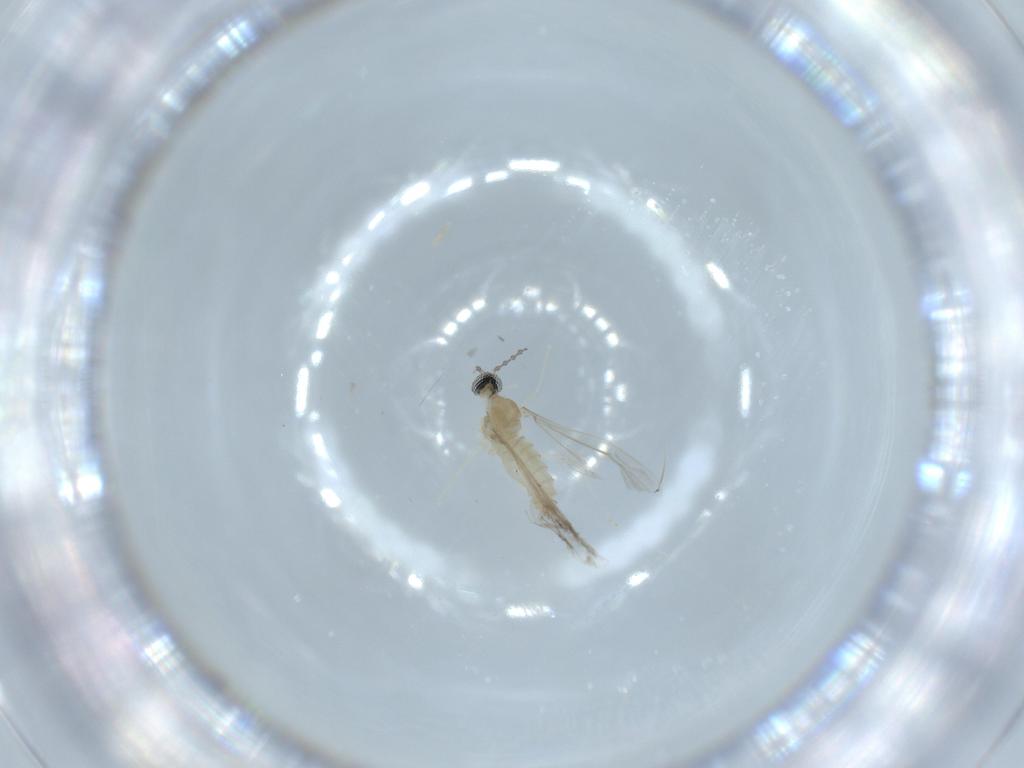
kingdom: Animalia
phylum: Arthropoda
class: Insecta
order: Diptera
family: Cecidomyiidae
